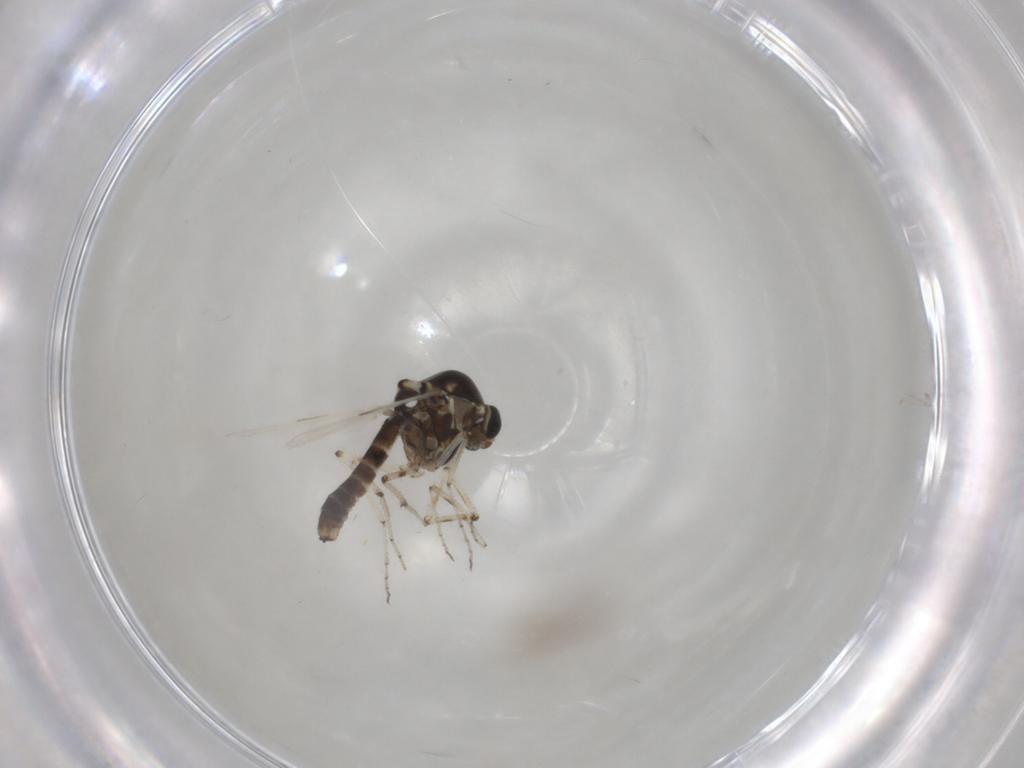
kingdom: Animalia
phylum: Arthropoda
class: Insecta
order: Diptera
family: Ceratopogonidae
